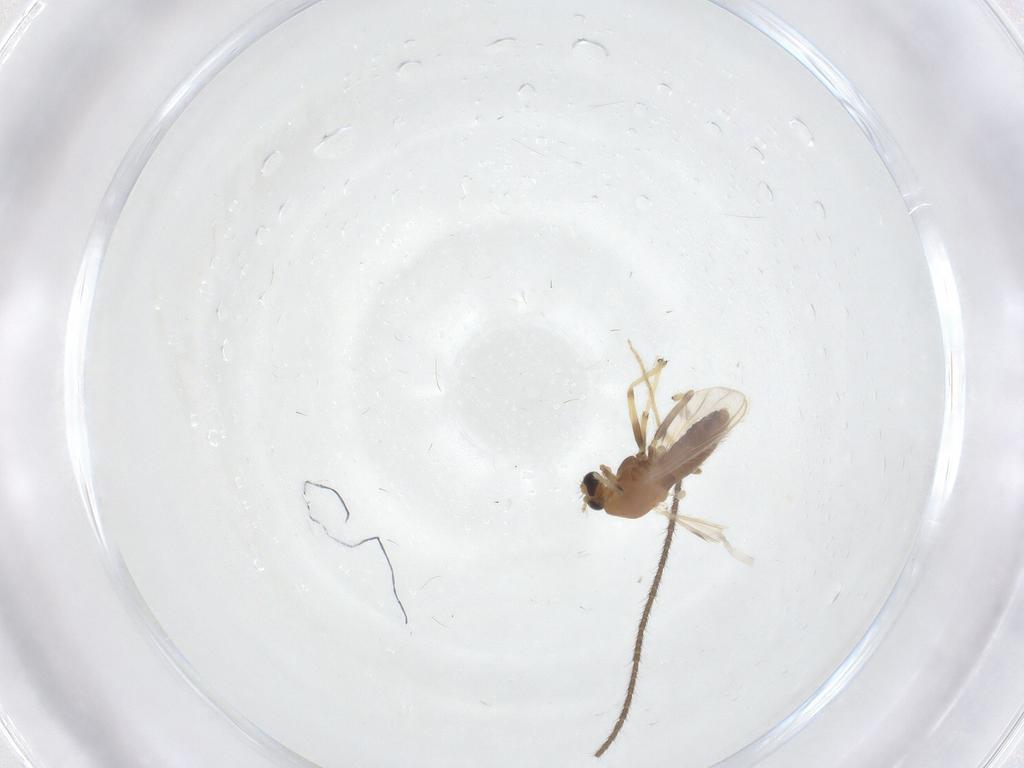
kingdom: Animalia
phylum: Arthropoda
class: Insecta
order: Diptera
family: Chironomidae
